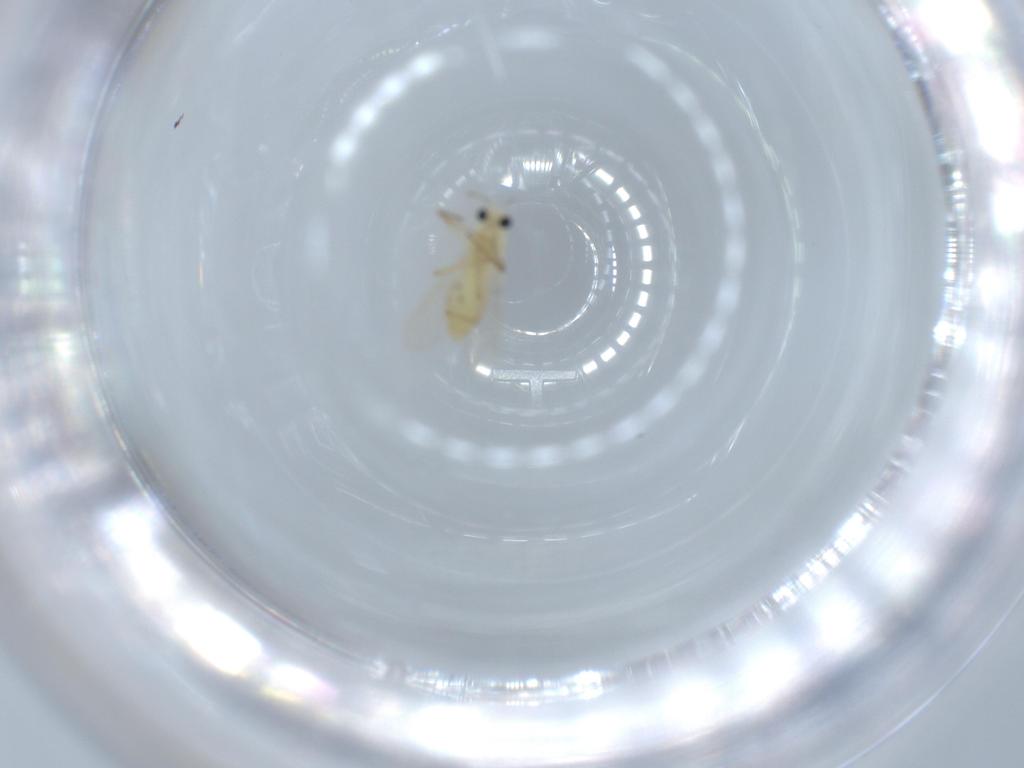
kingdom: Animalia
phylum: Arthropoda
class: Insecta
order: Diptera
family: Chironomidae
